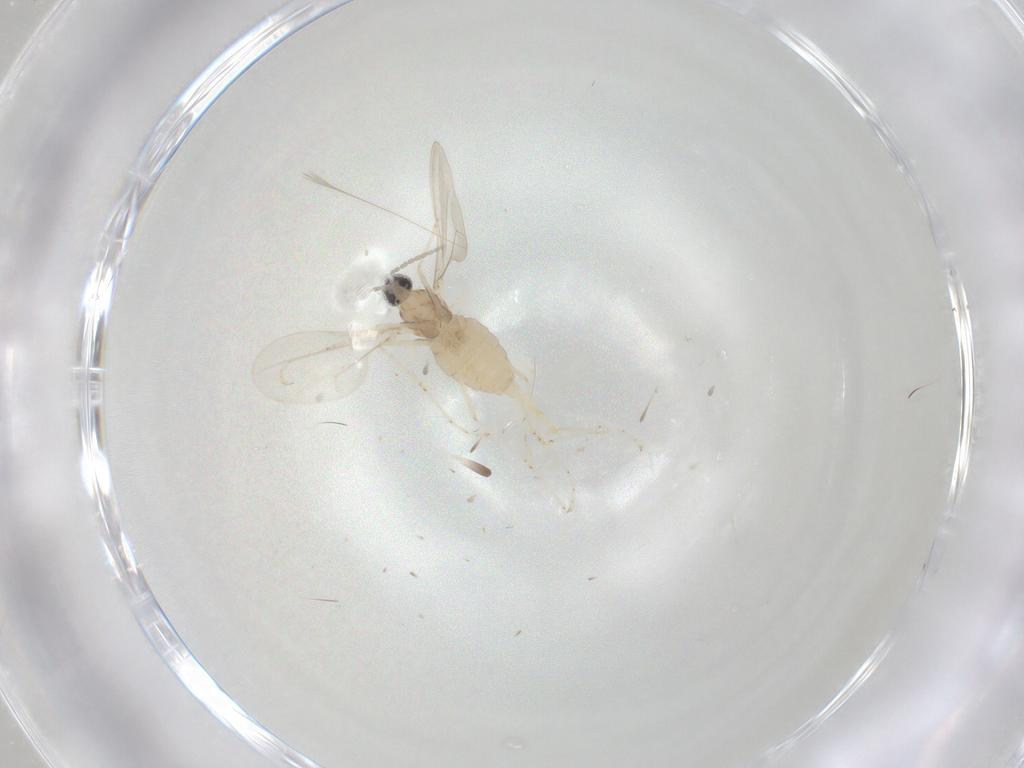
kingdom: Animalia
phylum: Arthropoda
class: Insecta
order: Diptera
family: Cecidomyiidae
